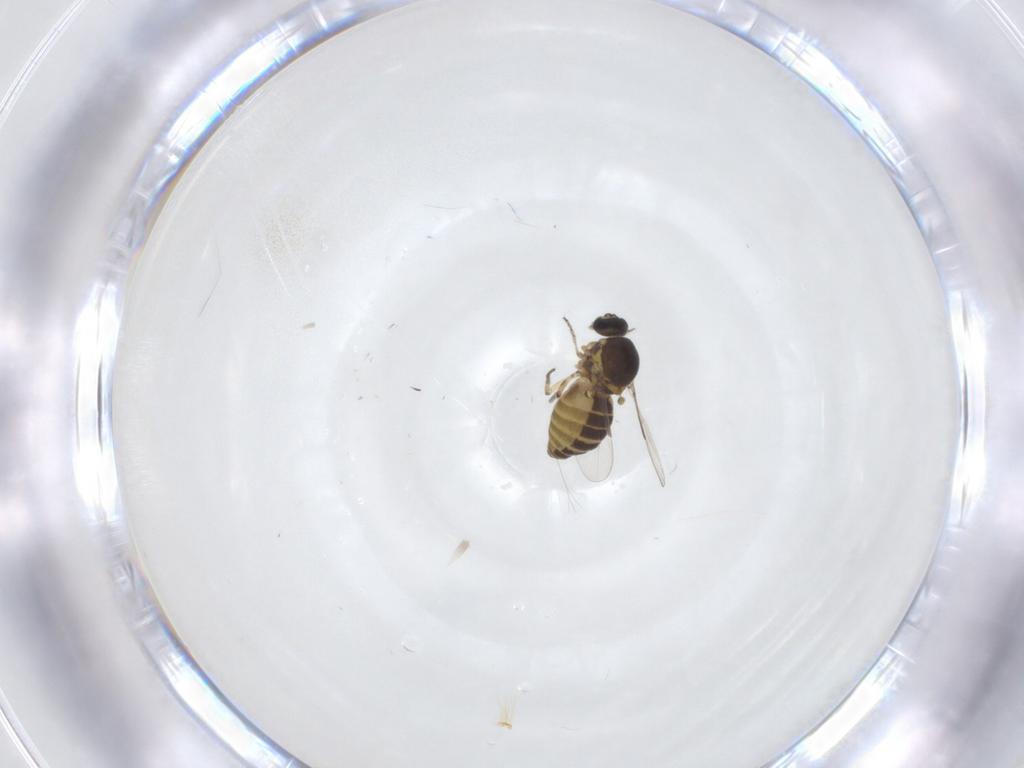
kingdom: Animalia
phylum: Arthropoda
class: Insecta
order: Diptera
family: Ceratopogonidae
